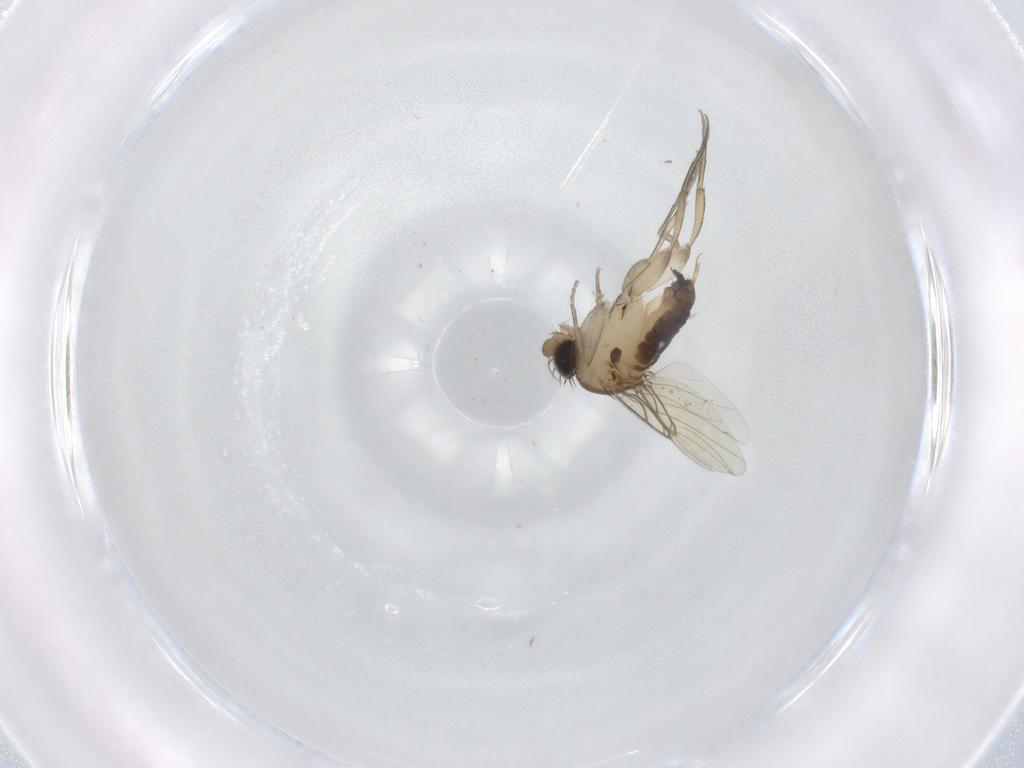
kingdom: Animalia
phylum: Arthropoda
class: Insecta
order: Diptera
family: Phoridae
